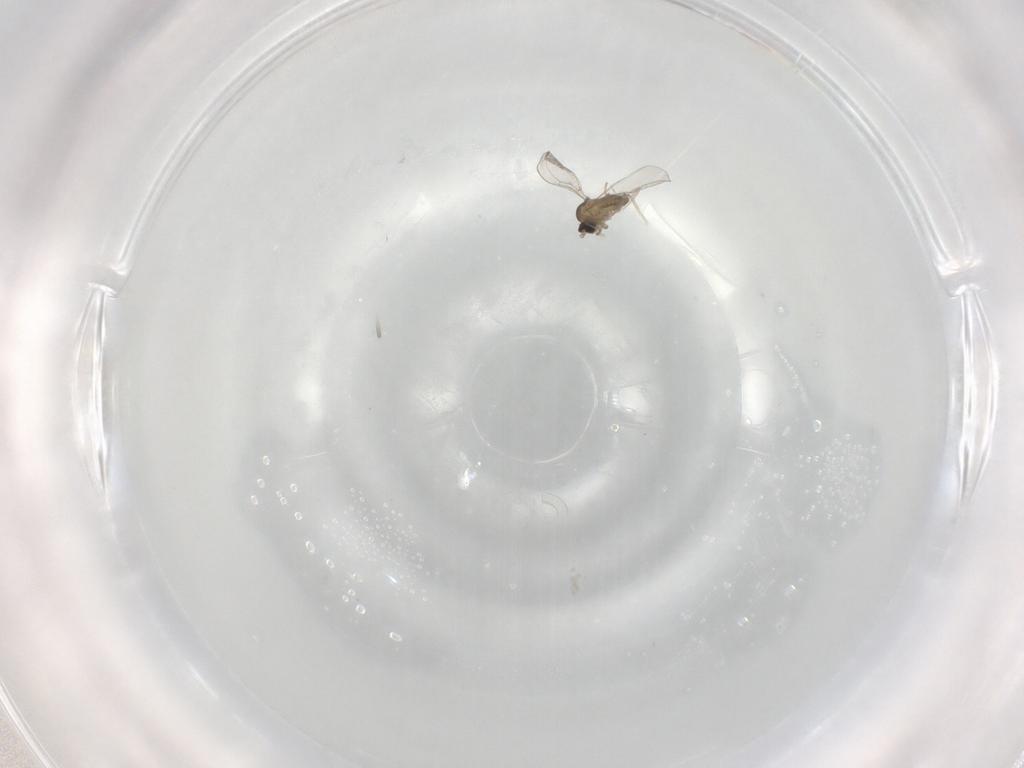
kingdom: Animalia
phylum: Arthropoda
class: Insecta
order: Diptera
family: Cecidomyiidae
